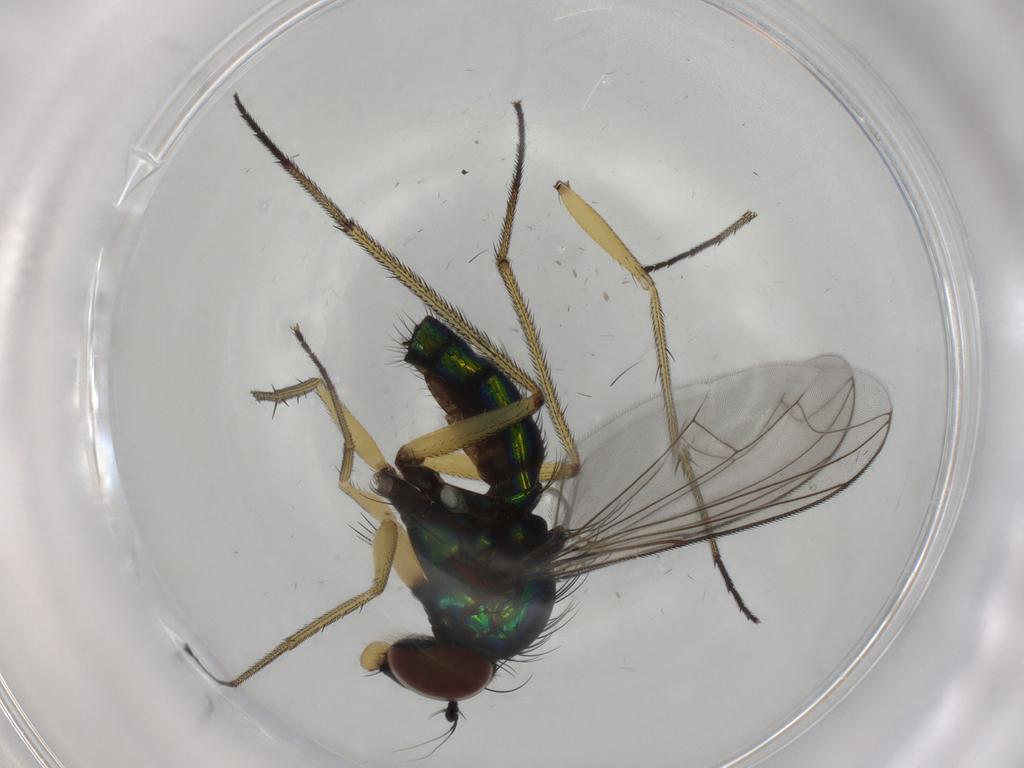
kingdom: Animalia
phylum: Arthropoda
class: Insecta
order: Diptera
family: Dolichopodidae
